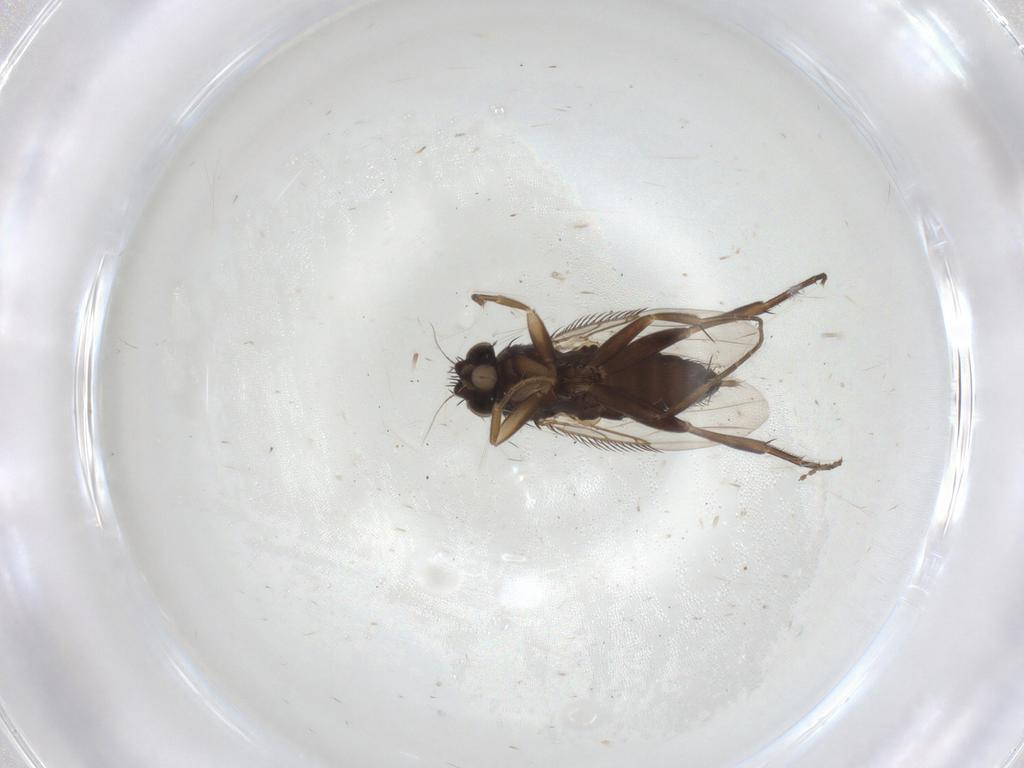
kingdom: Animalia
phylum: Arthropoda
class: Insecta
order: Diptera
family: Phoridae
